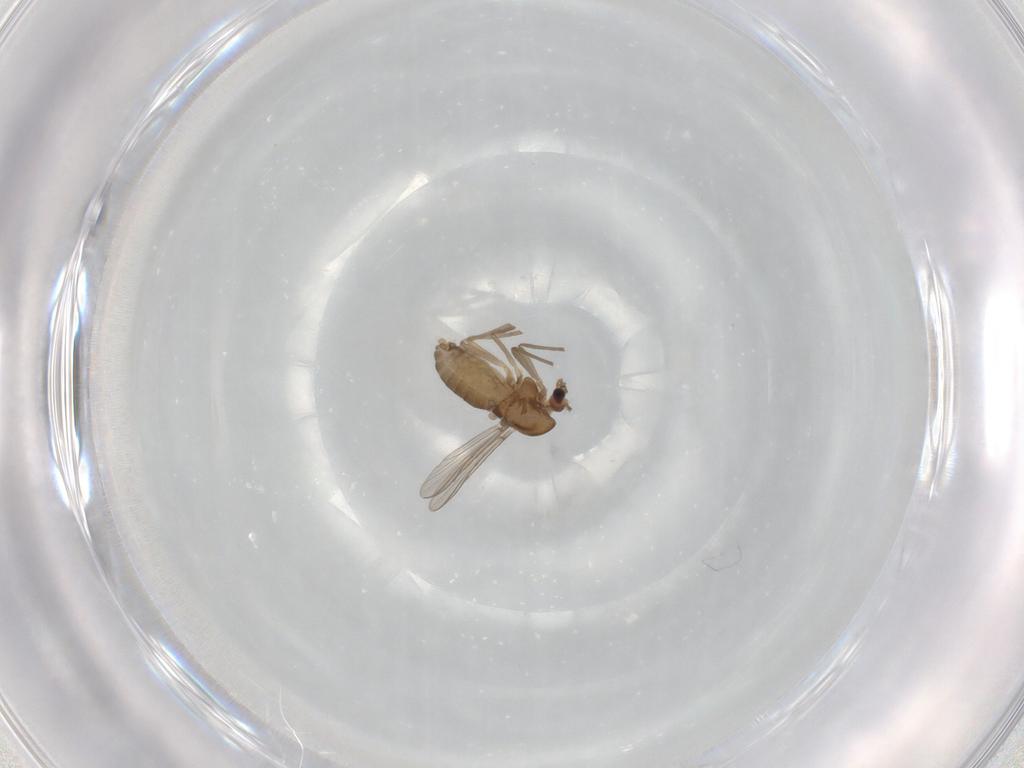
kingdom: Animalia
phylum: Arthropoda
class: Insecta
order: Diptera
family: Chironomidae
